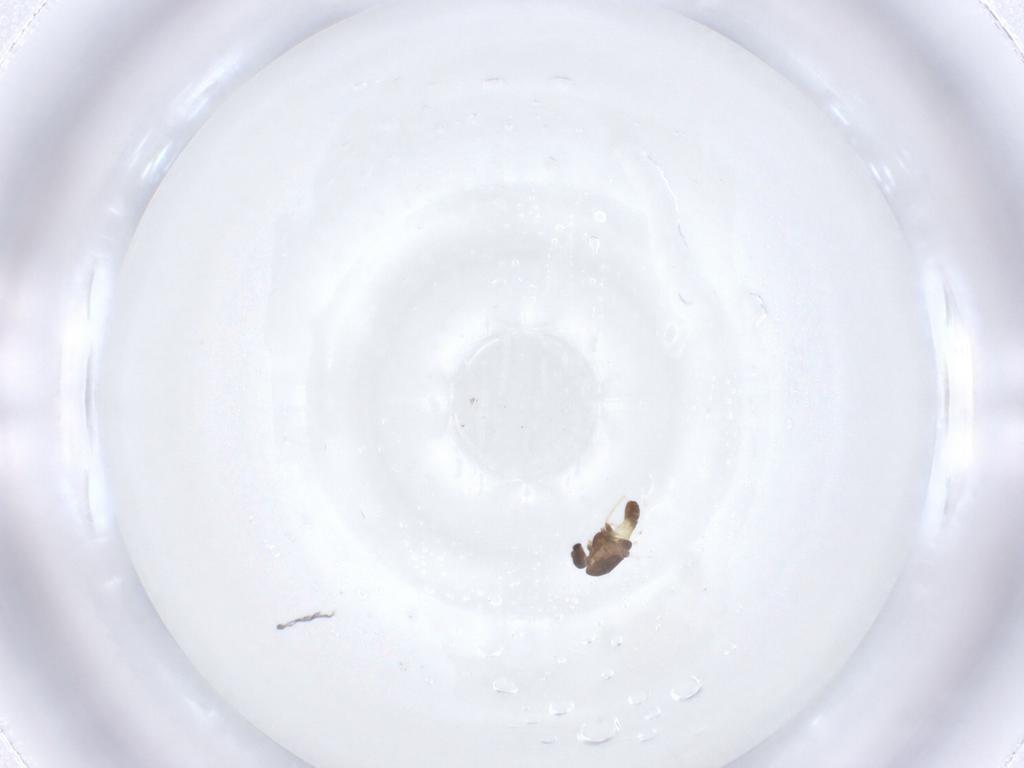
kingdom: Animalia
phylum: Arthropoda
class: Insecta
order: Diptera
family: Chironomidae
